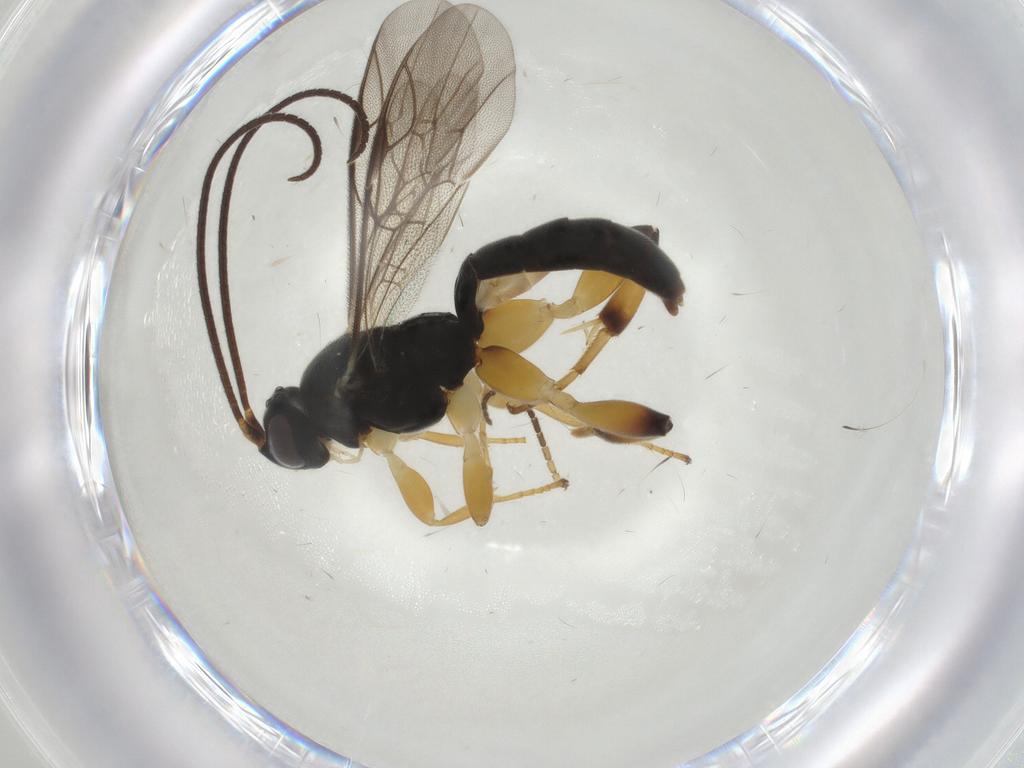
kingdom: Animalia
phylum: Arthropoda
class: Insecta
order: Hymenoptera
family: Ichneumonidae
